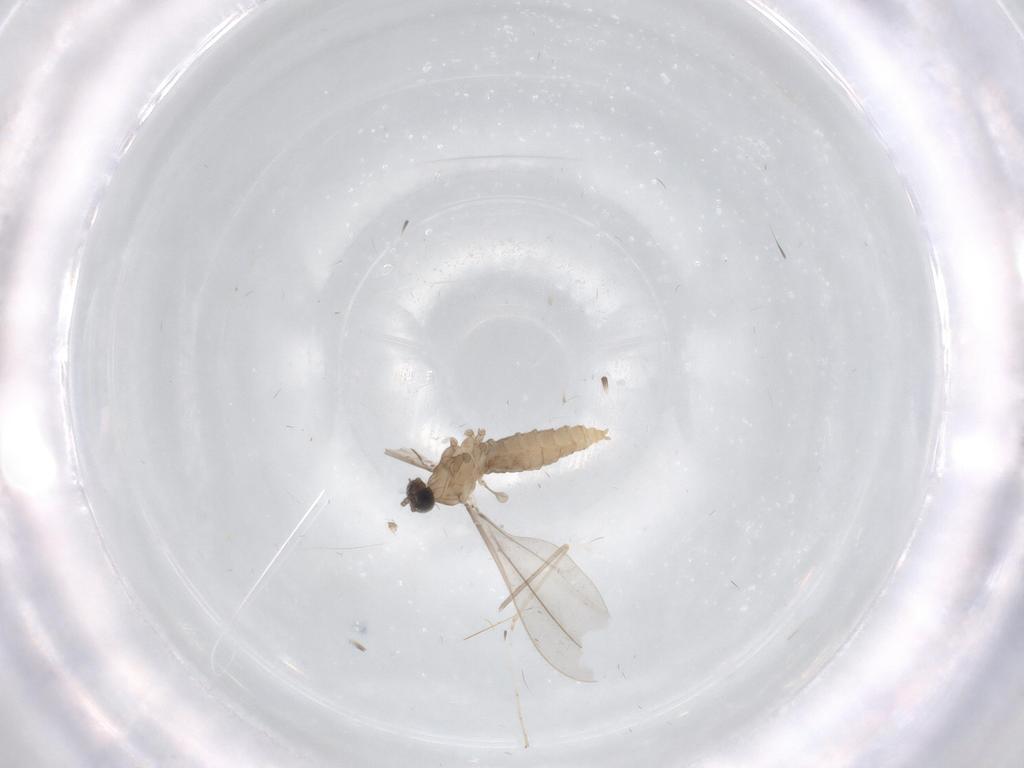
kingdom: Animalia
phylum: Arthropoda
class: Insecta
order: Diptera
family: Cecidomyiidae
